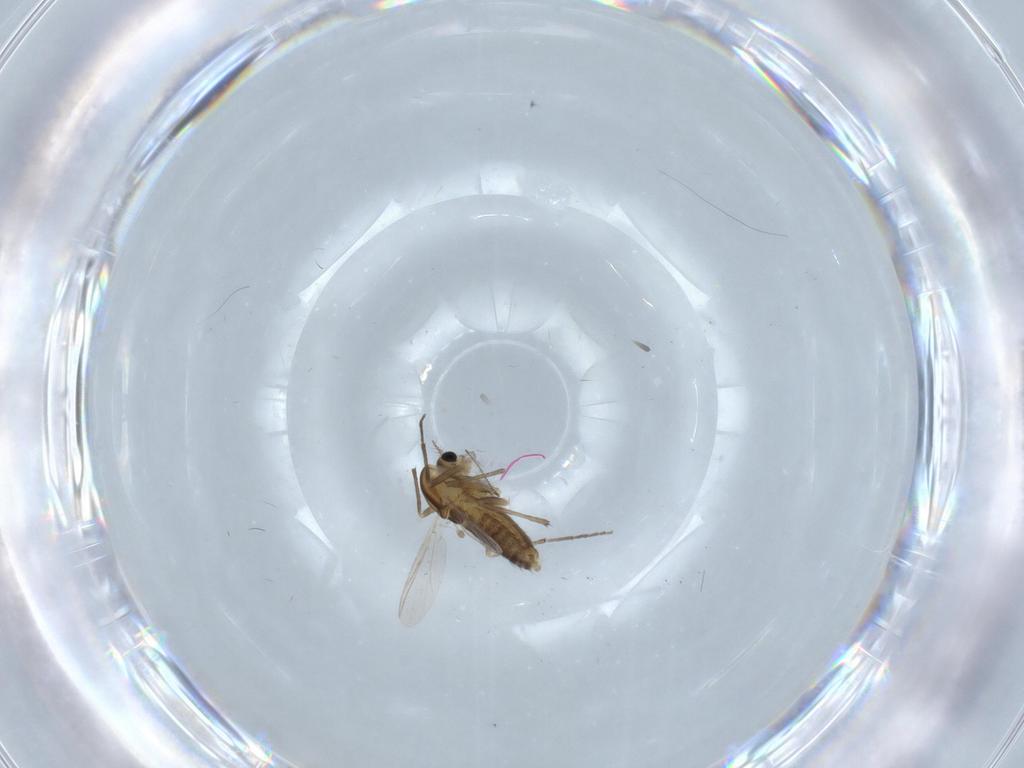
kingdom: Animalia
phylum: Arthropoda
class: Insecta
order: Diptera
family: Chironomidae
